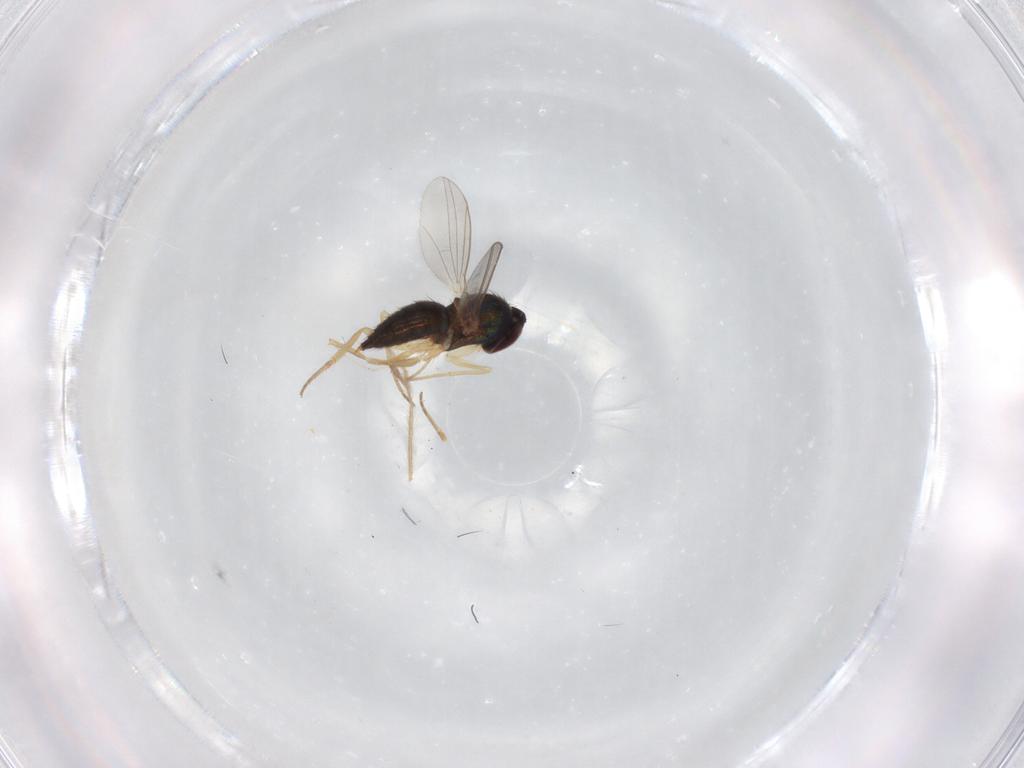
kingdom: Animalia
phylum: Arthropoda
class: Insecta
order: Diptera
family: Dolichopodidae
